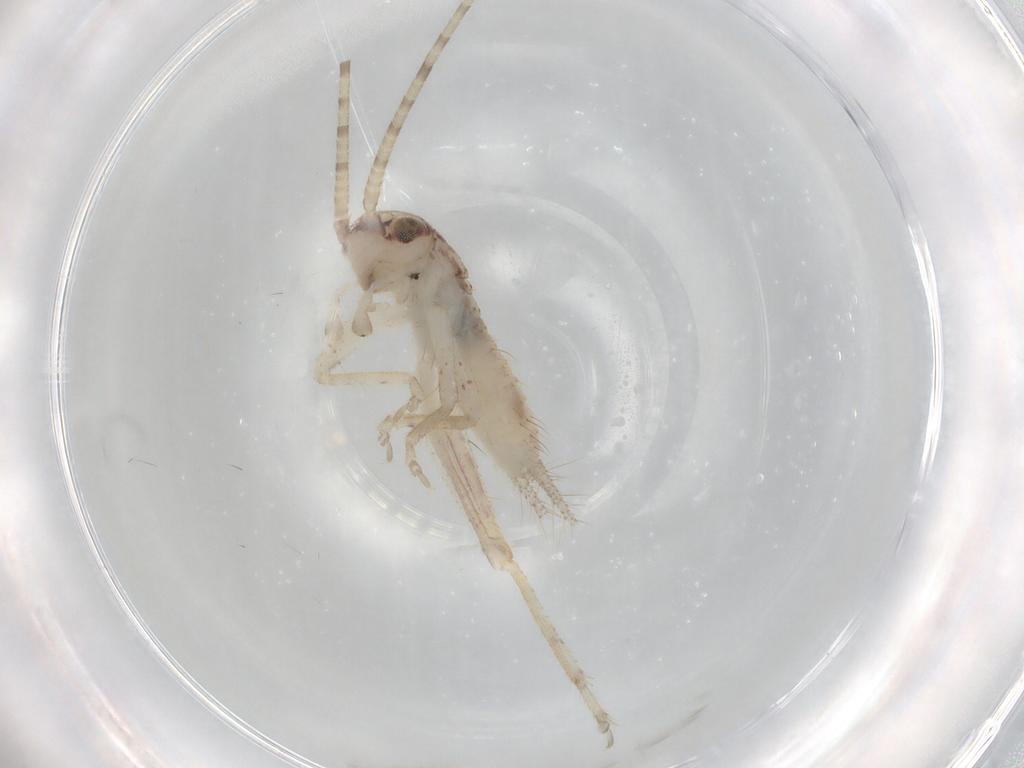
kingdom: Animalia
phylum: Arthropoda
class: Insecta
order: Orthoptera
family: Gryllidae
